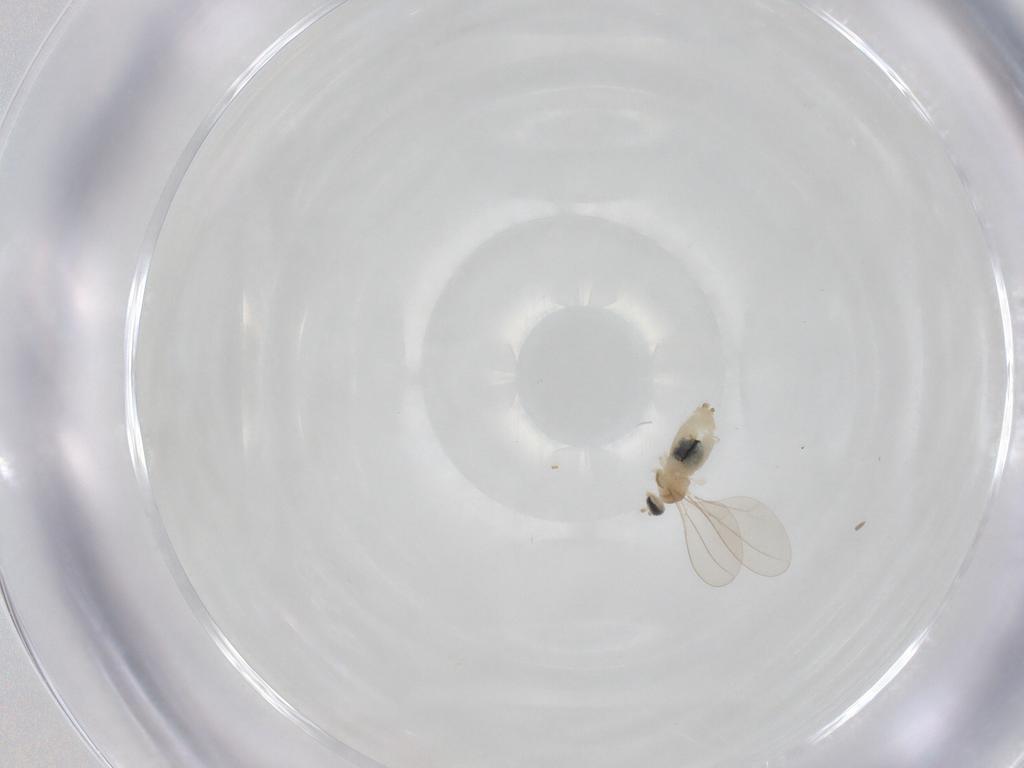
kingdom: Animalia
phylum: Arthropoda
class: Insecta
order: Diptera
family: Cecidomyiidae
